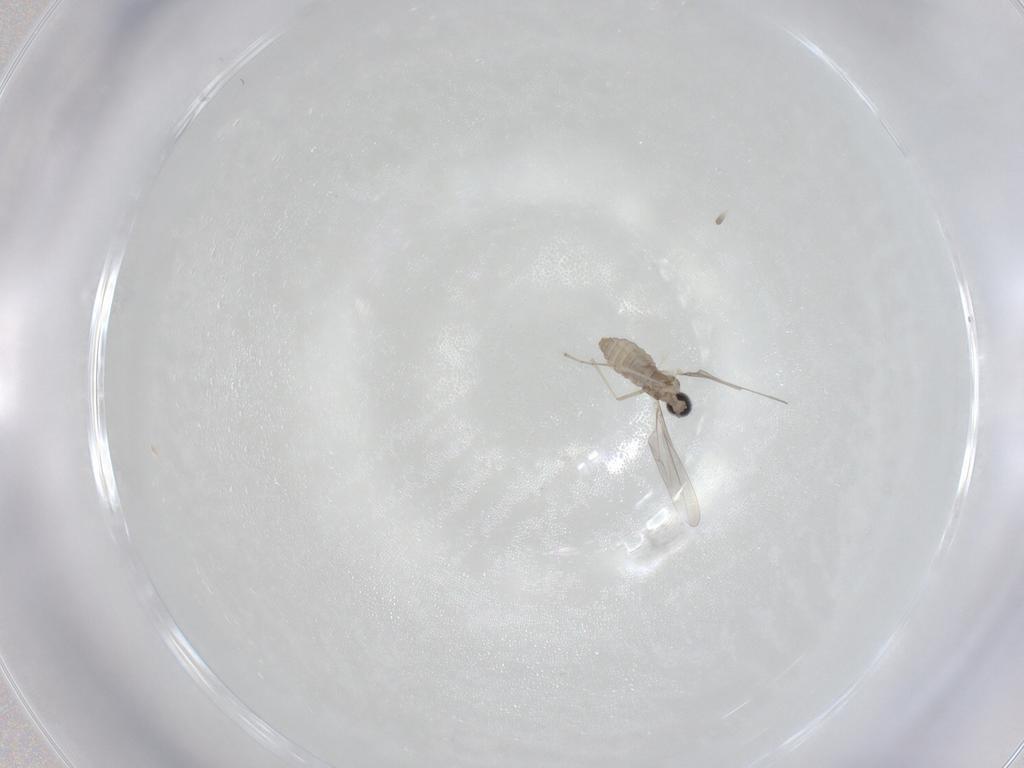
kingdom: Animalia
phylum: Arthropoda
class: Insecta
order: Diptera
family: Cecidomyiidae
